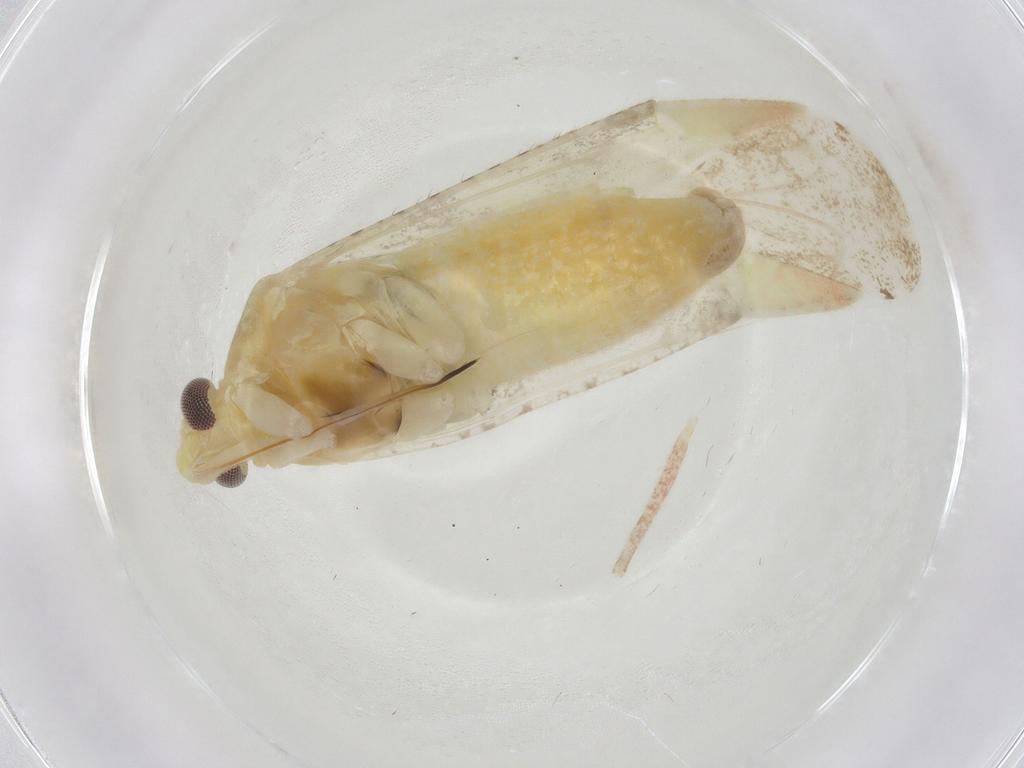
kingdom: Animalia
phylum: Arthropoda
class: Insecta
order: Hemiptera
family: Miridae
